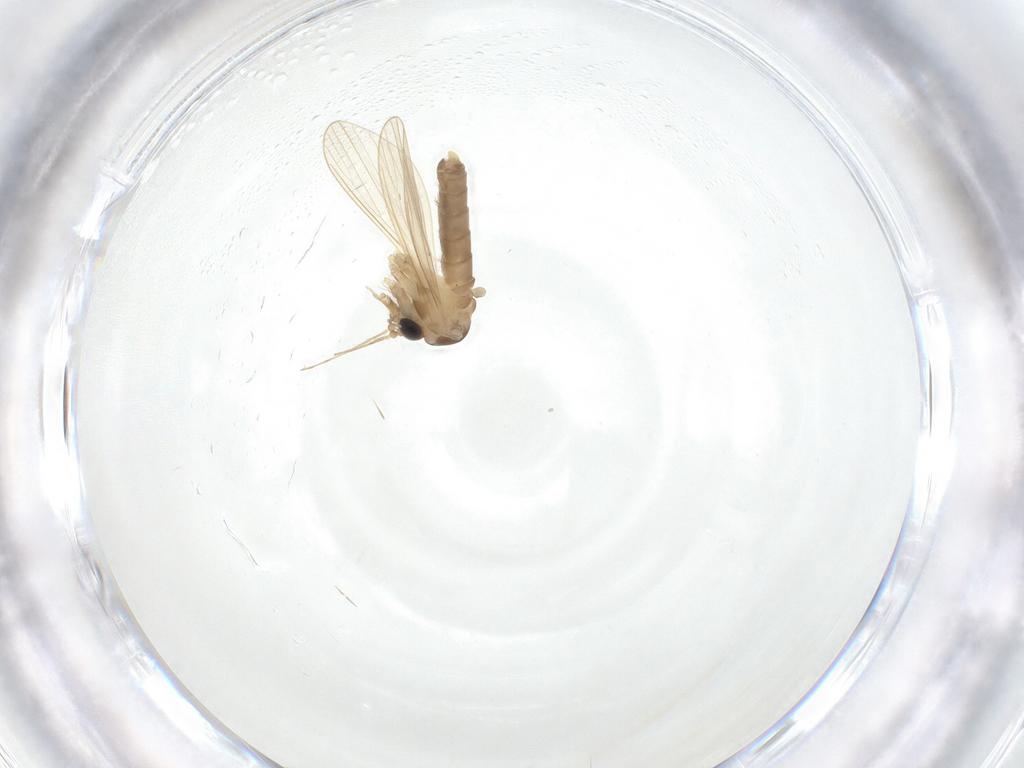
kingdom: Animalia
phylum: Arthropoda
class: Insecta
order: Diptera
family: Psychodidae
